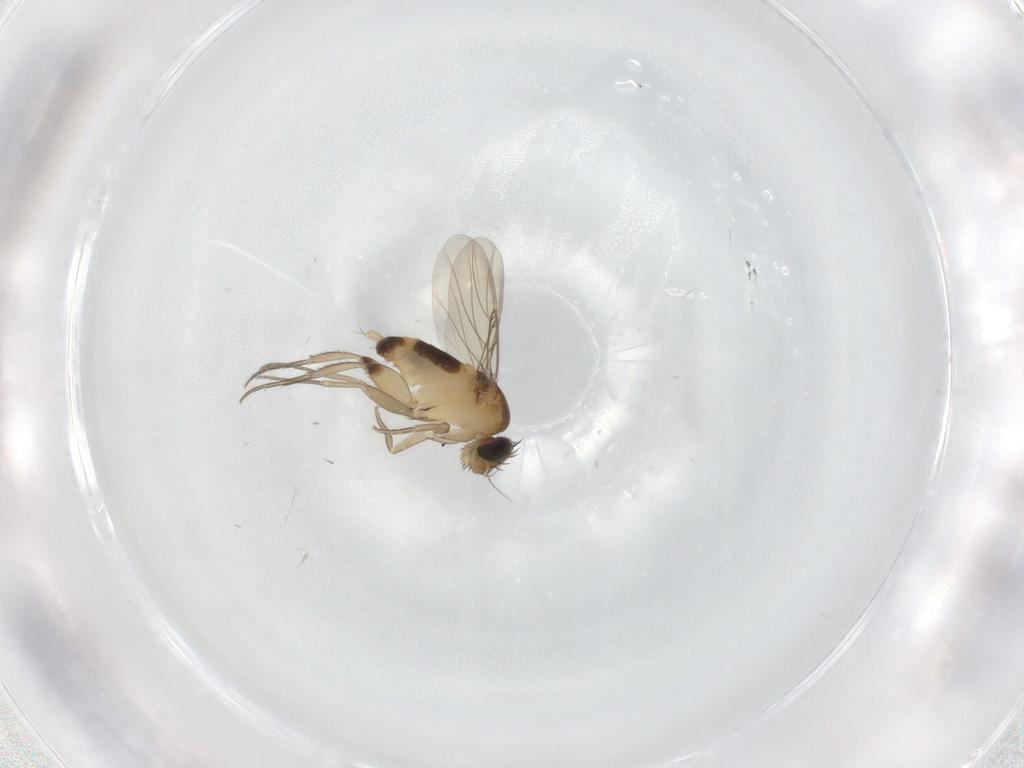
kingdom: Animalia
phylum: Arthropoda
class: Insecta
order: Diptera
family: Phoridae
